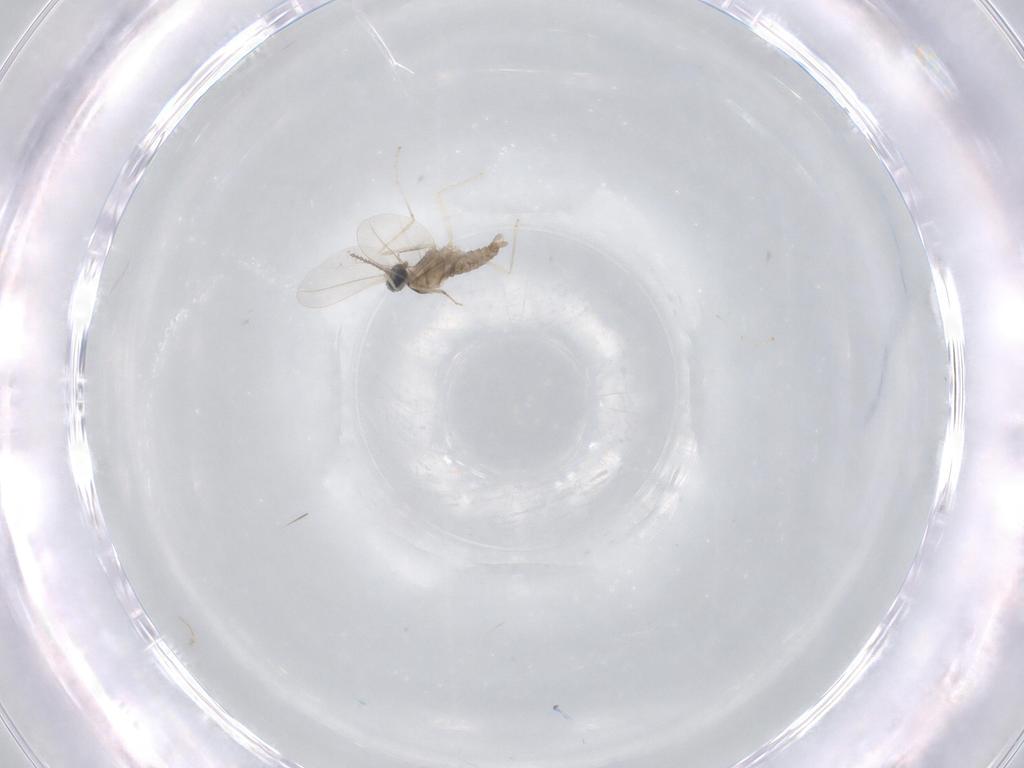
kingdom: Animalia
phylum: Arthropoda
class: Insecta
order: Diptera
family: Cecidomyiidae
